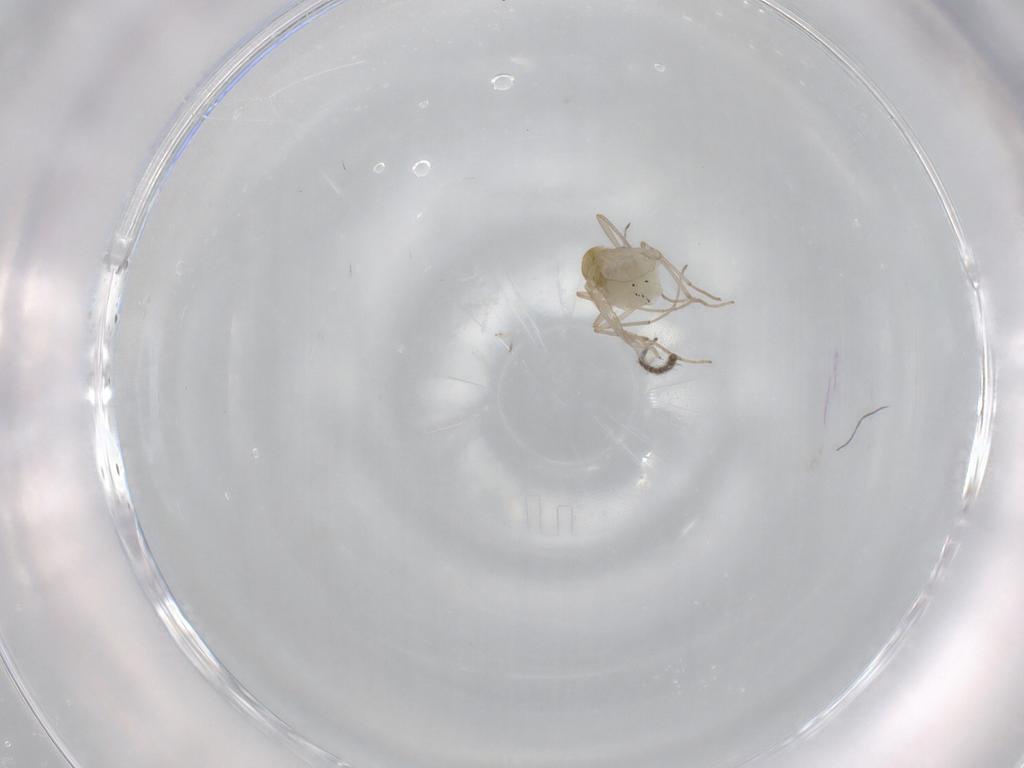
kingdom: Animalia
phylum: Arthropoda
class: Insecta
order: Diptera
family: Chironomidae
